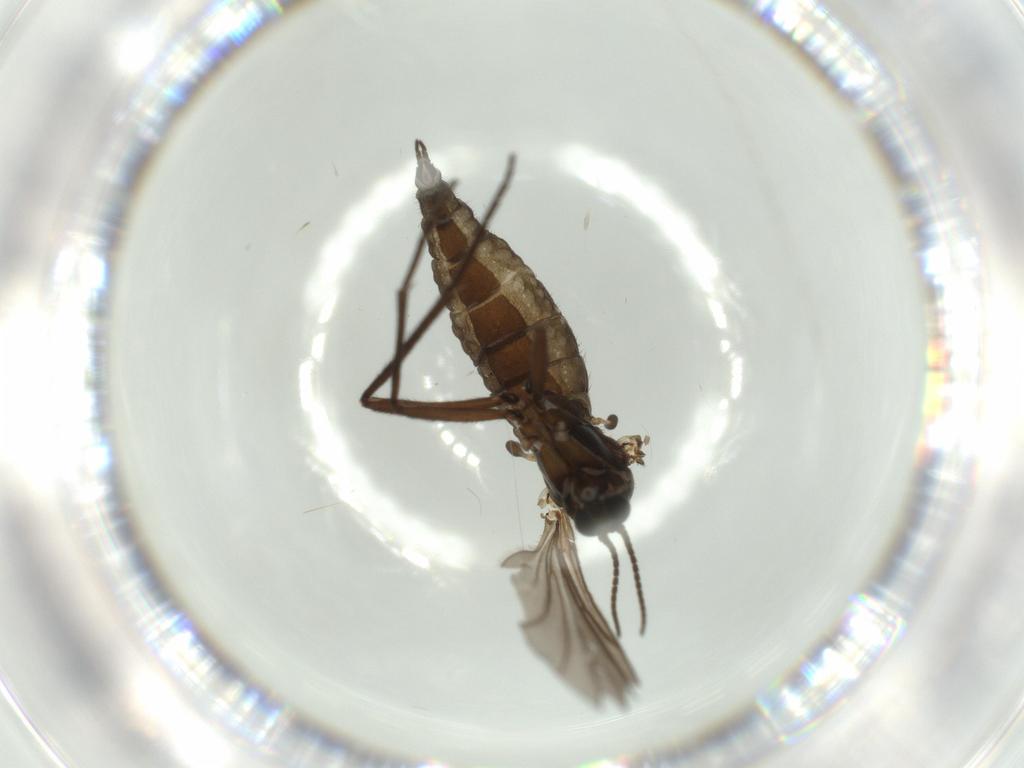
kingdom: Animalia
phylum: Arthropoda
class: Insecta
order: Diptera
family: Sciaridae
